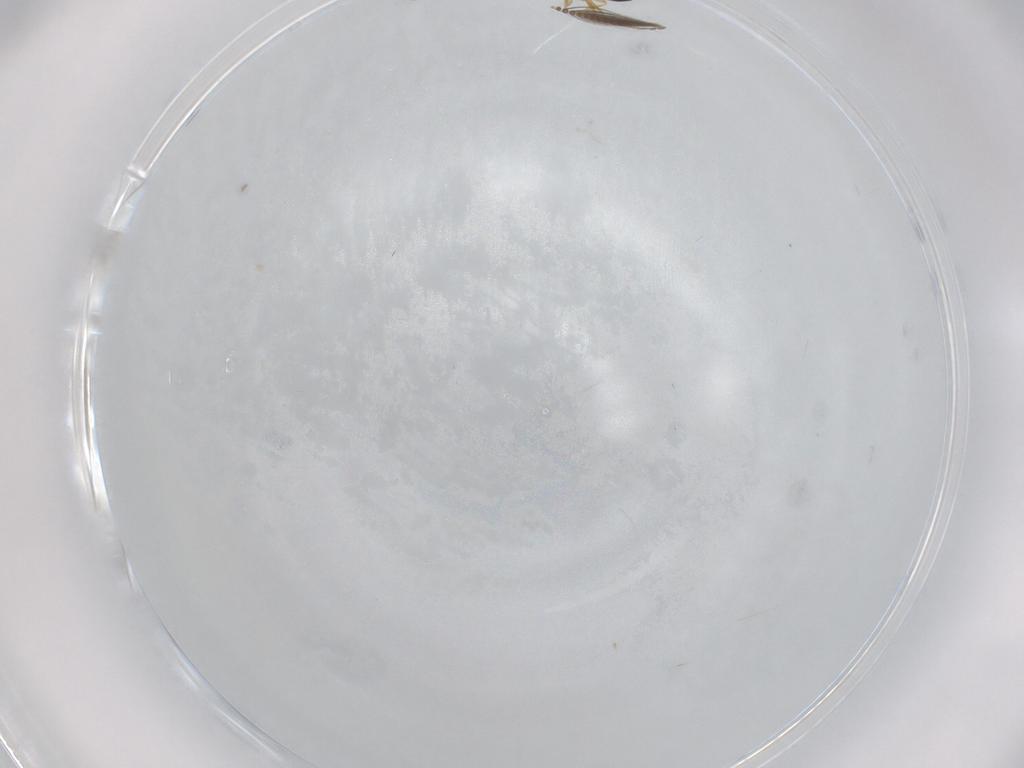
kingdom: Animalia
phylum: Arthropoda
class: Insecta
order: Hymenoptera
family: Scelionidae
